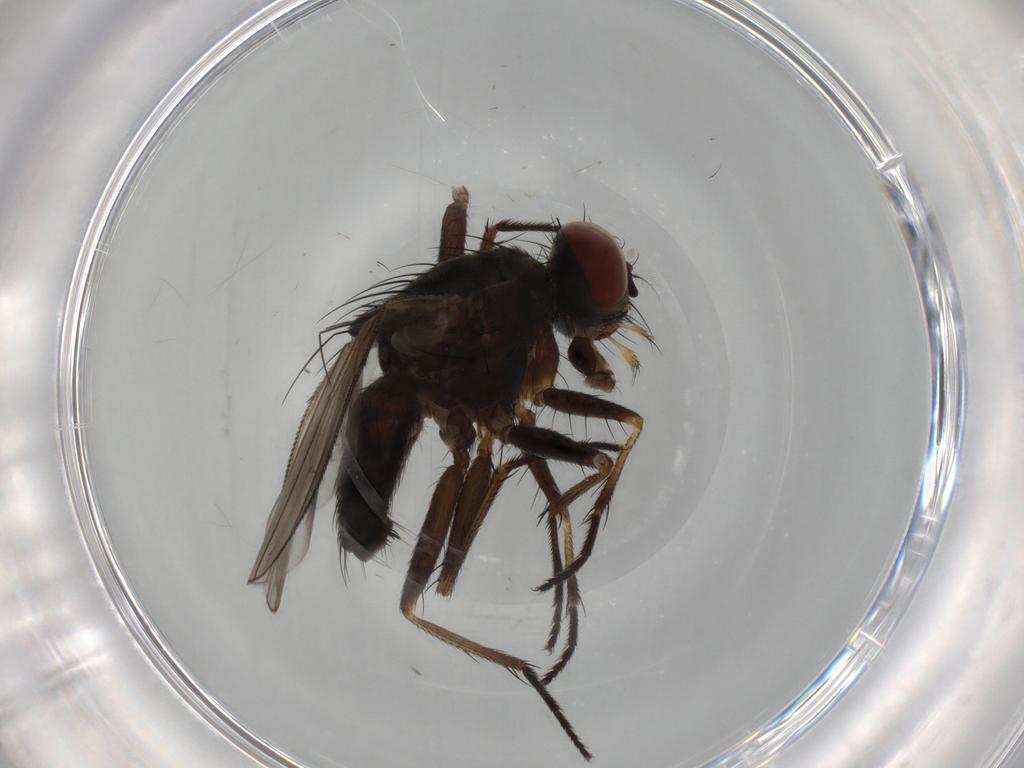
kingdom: Animalia
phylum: Arthropoda
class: Insecta
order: Diptera
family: Muscidae
